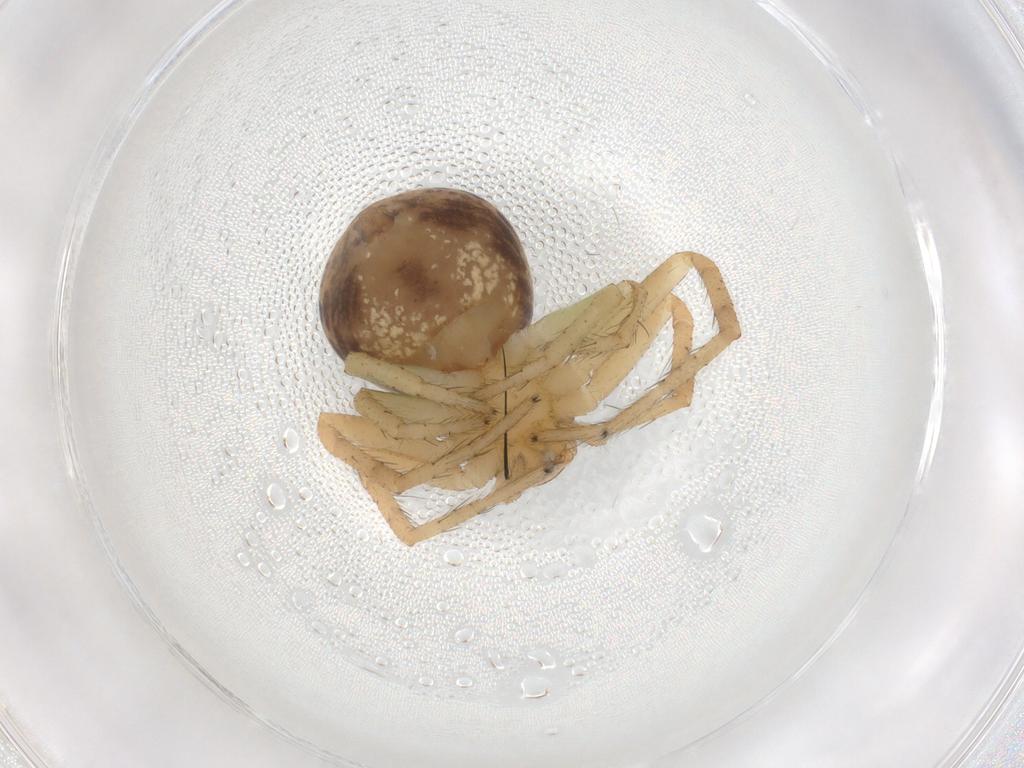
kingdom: Animalia
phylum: Arthropoda
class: Arachnida
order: Araneae
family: Thomisidae
